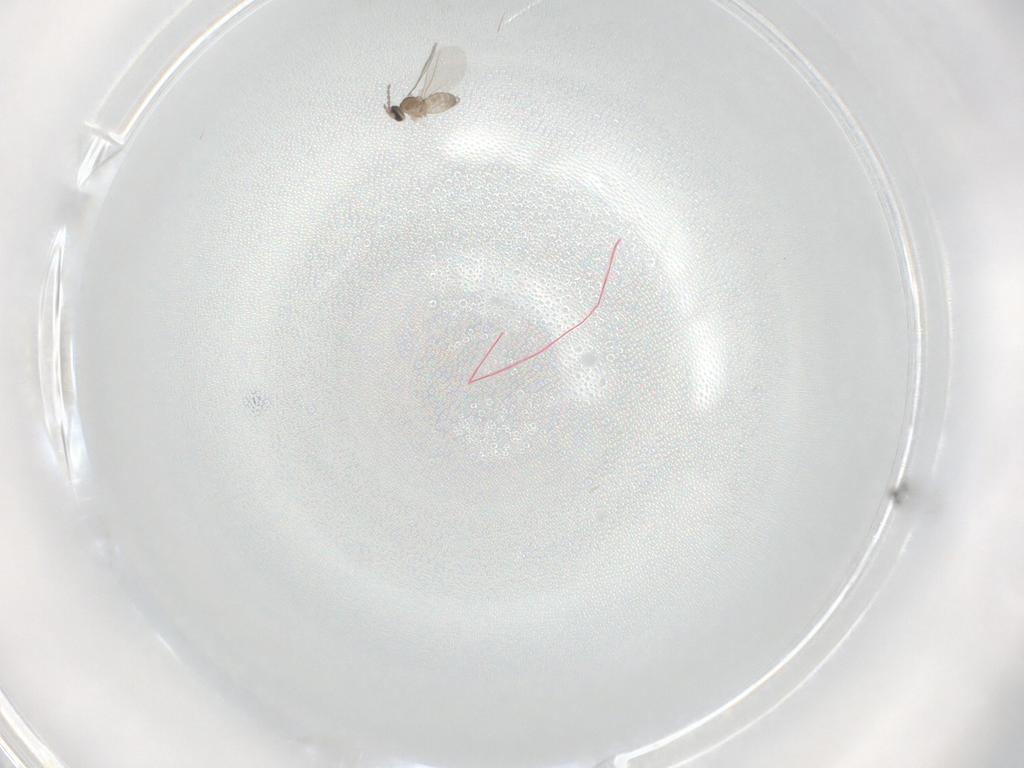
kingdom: Animalia
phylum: Arthropoda
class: Insecta
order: Diptera
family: Cecidomyiidae
